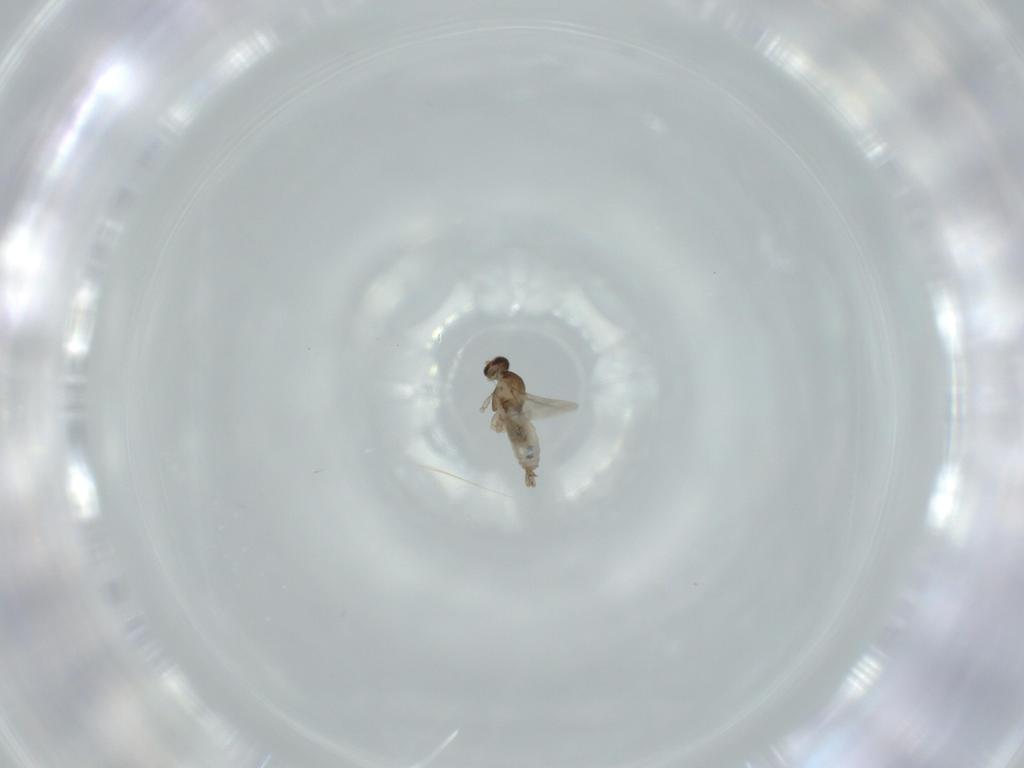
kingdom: Animalia
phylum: Arthropoda
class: Insecta
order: Diptera
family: Cecidomyiidae
